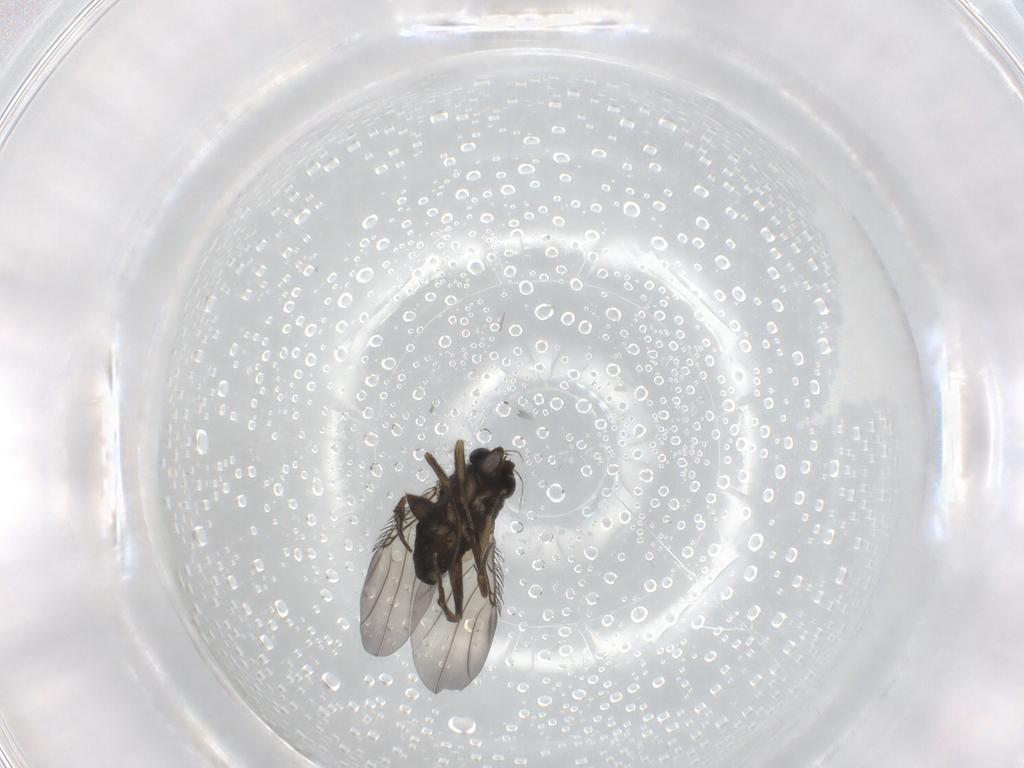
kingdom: Animalia
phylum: Arthropoda
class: Insecta
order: Diptera
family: Phoridae
